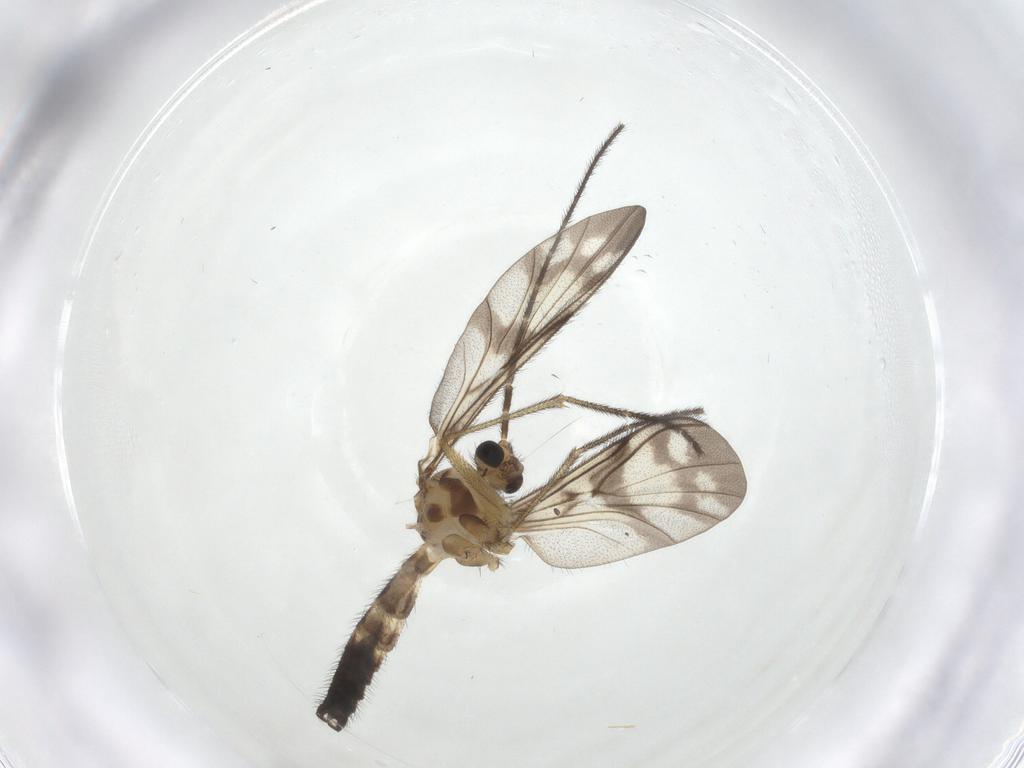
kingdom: Animalia
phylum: Arthropoda
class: Insecta
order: Diptera
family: Keroplatidae
